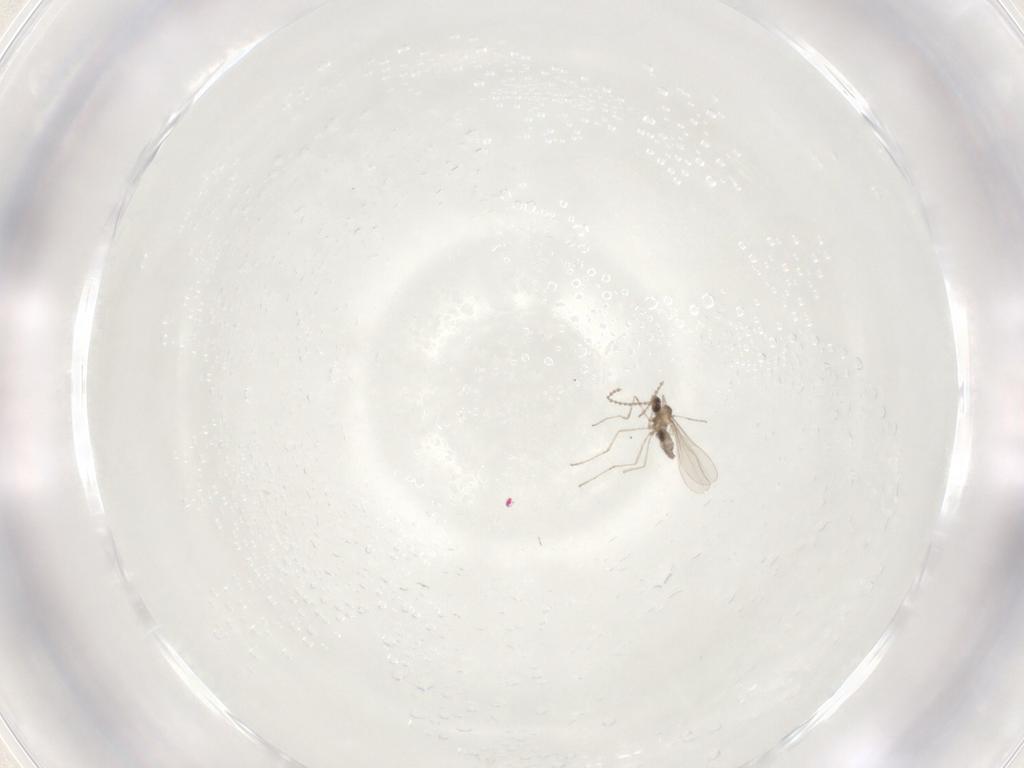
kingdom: Animalia
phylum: Arthropoda
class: Insecta
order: Diptera
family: Cecidomyiidae
